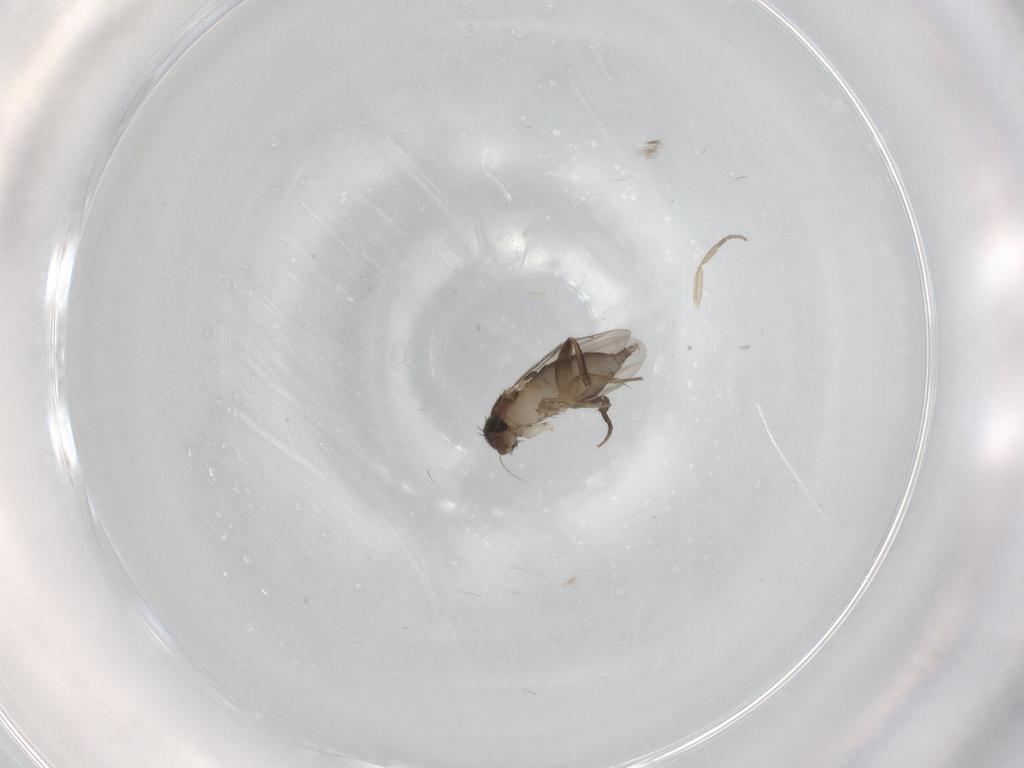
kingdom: Animalia
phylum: Arthropoda
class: Insecta
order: Diptera
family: Phoridae
